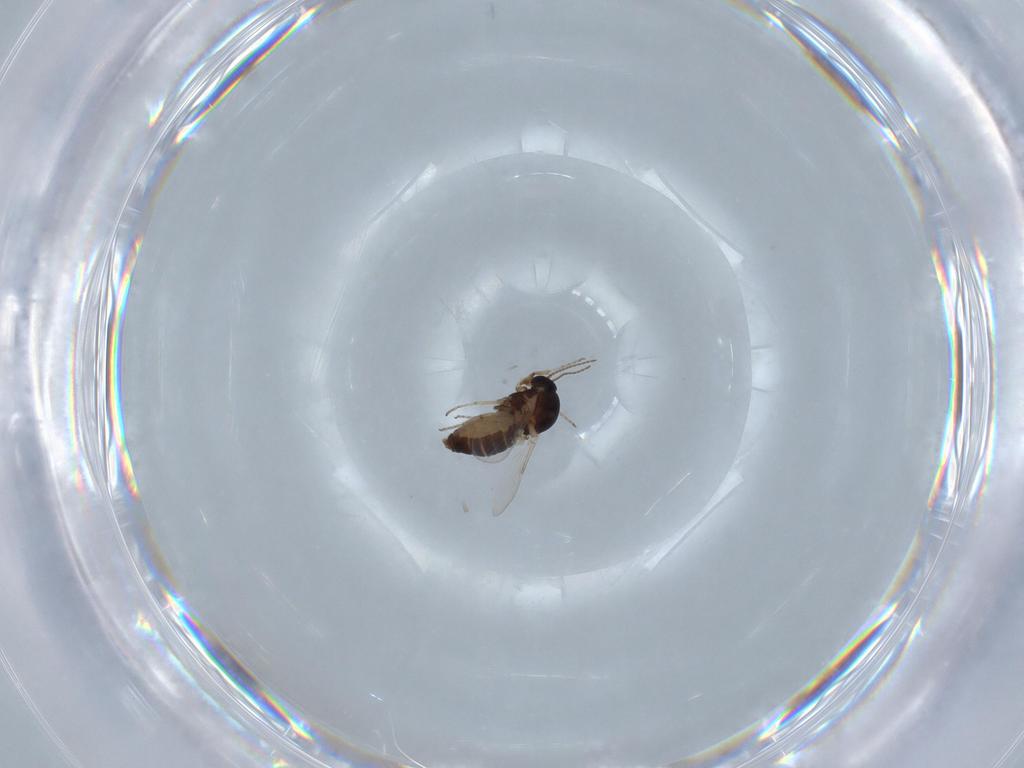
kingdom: Animalia
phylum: Arthropoda
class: Insecta
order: Diptera
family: Ceratopogonidae
